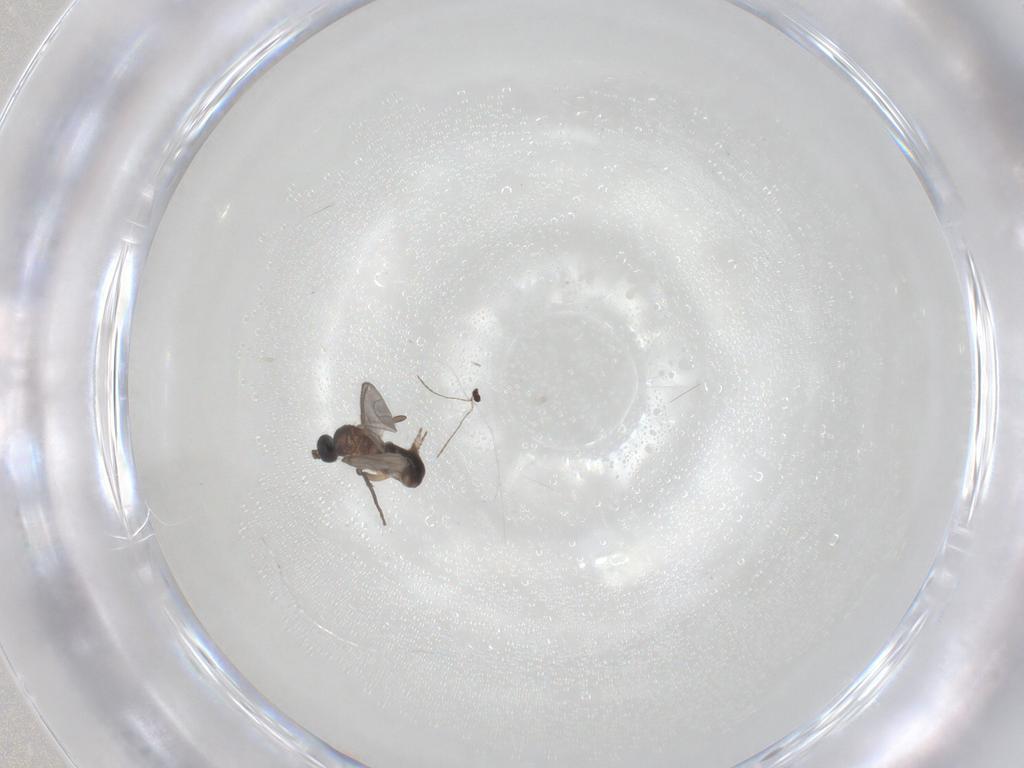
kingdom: Animalia
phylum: Arthropoda
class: Insecta
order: Diptera
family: Sciaridae
